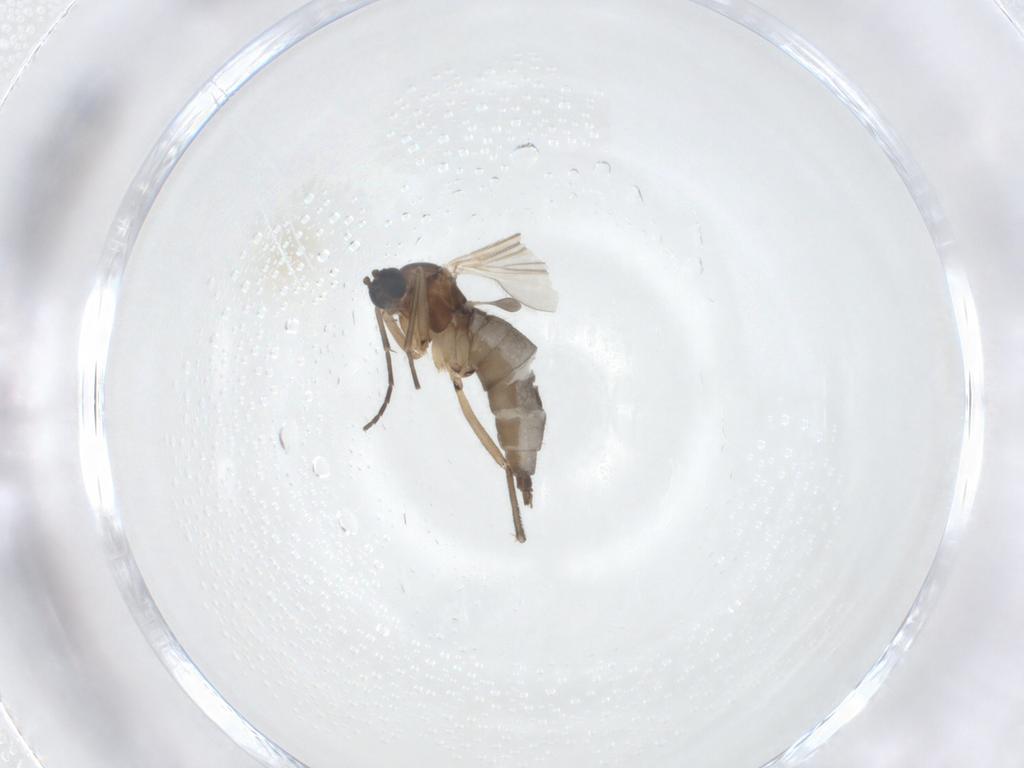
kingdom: Animalia
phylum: Arthropoda
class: Insecta
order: Diptera
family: Sciaridae
